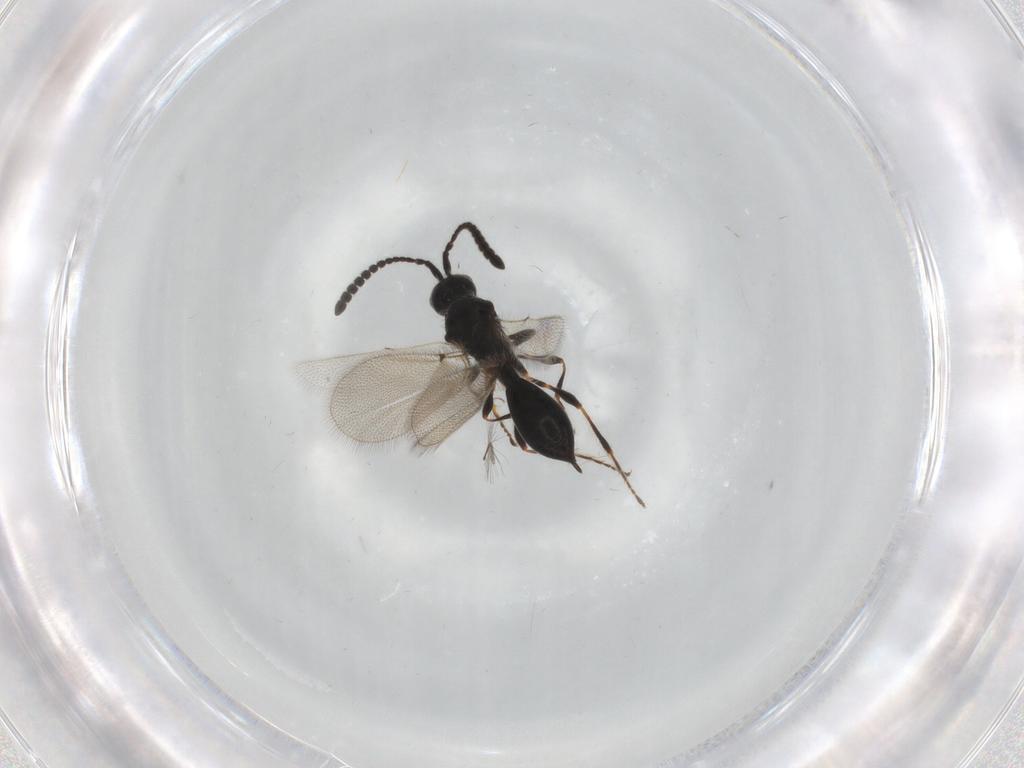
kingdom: Animalia
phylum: Arthropoda
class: Insecta
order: Hymenoptera
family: Diapriidae
